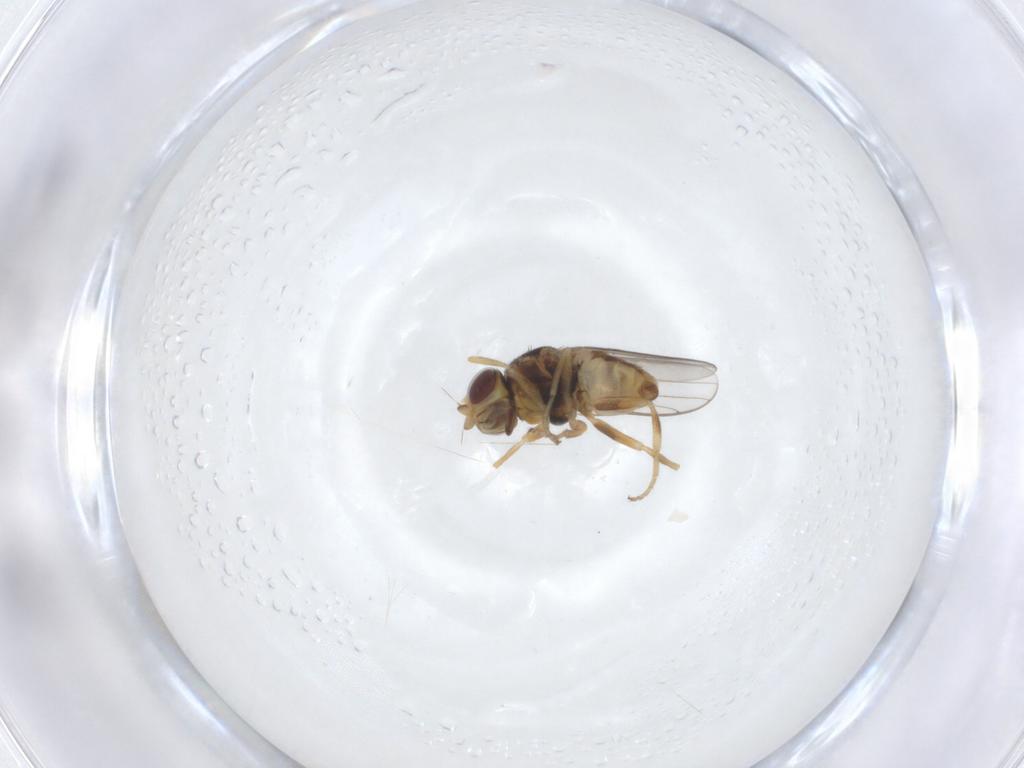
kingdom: Animalia
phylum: Arthropoda
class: Insecta
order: Diptera
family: Chloropidae
